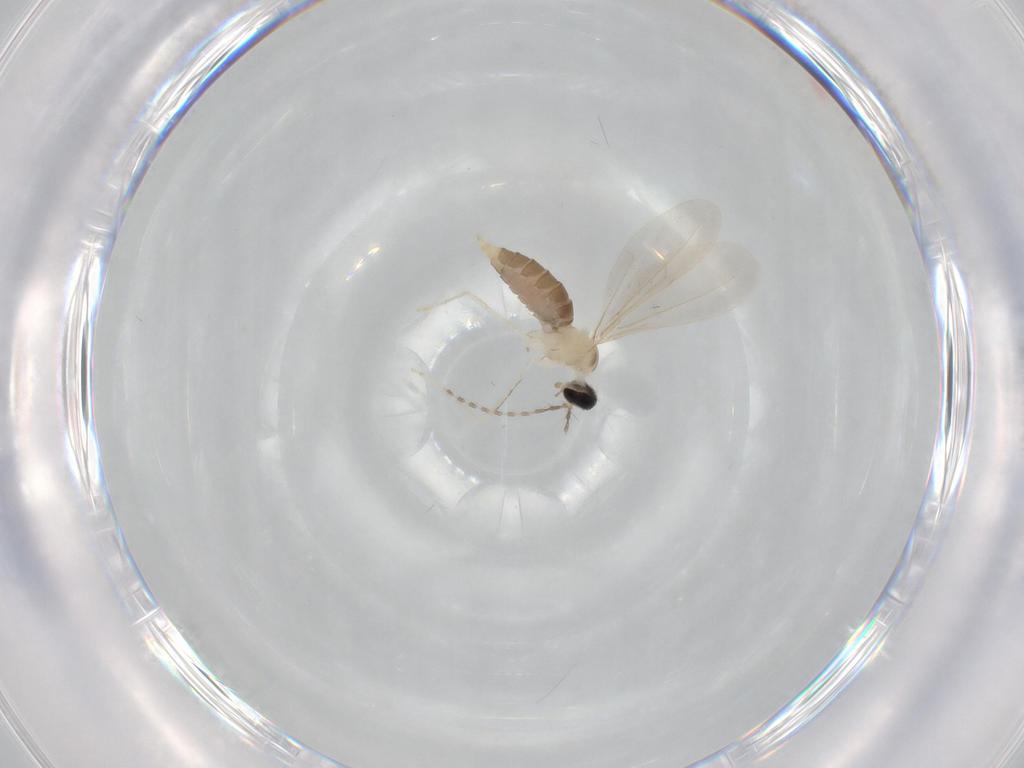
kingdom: Animalia
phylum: Arthropoda
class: Insecta
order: Diptera
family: Cecidomyiidae
